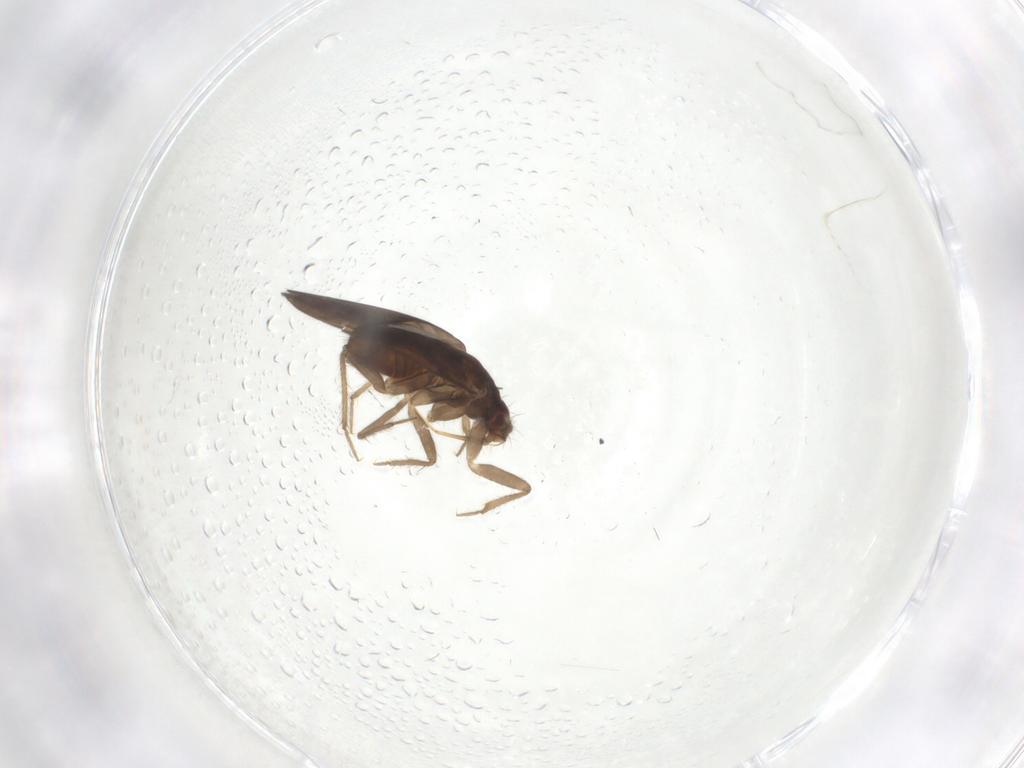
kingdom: Animalia
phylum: Arthropoda
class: Insecta
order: Hemiptera
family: Ceratocombidae
